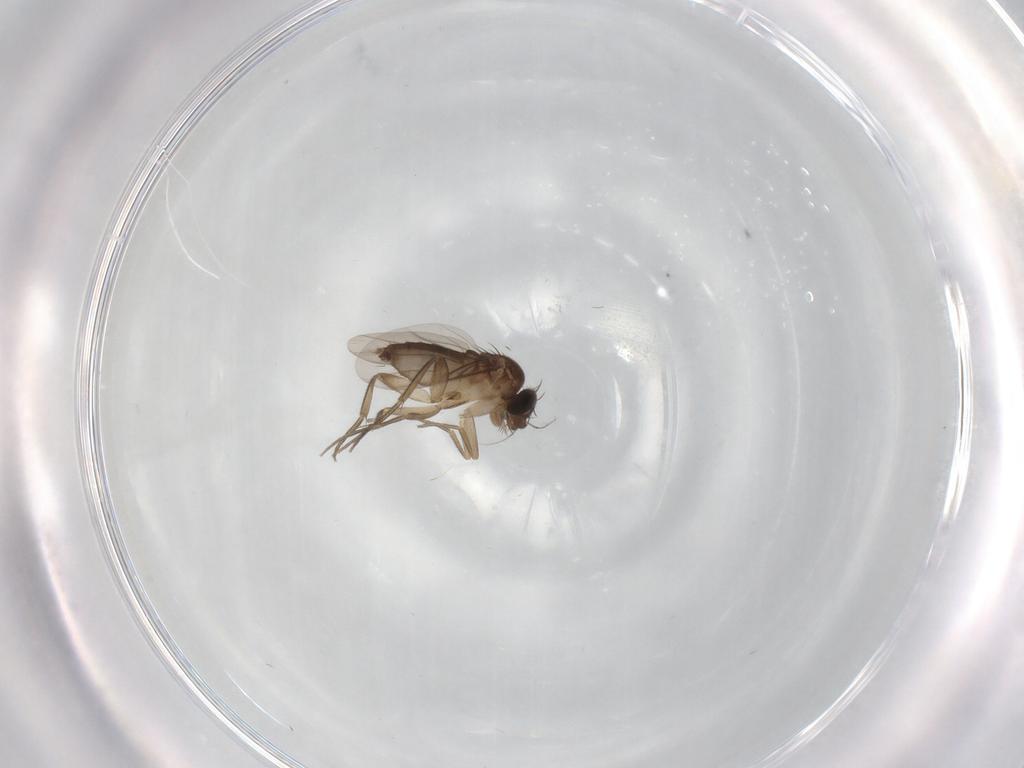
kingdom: Animalia
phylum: Arthropoda
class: Insecta
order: Diptera
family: Phoridae
